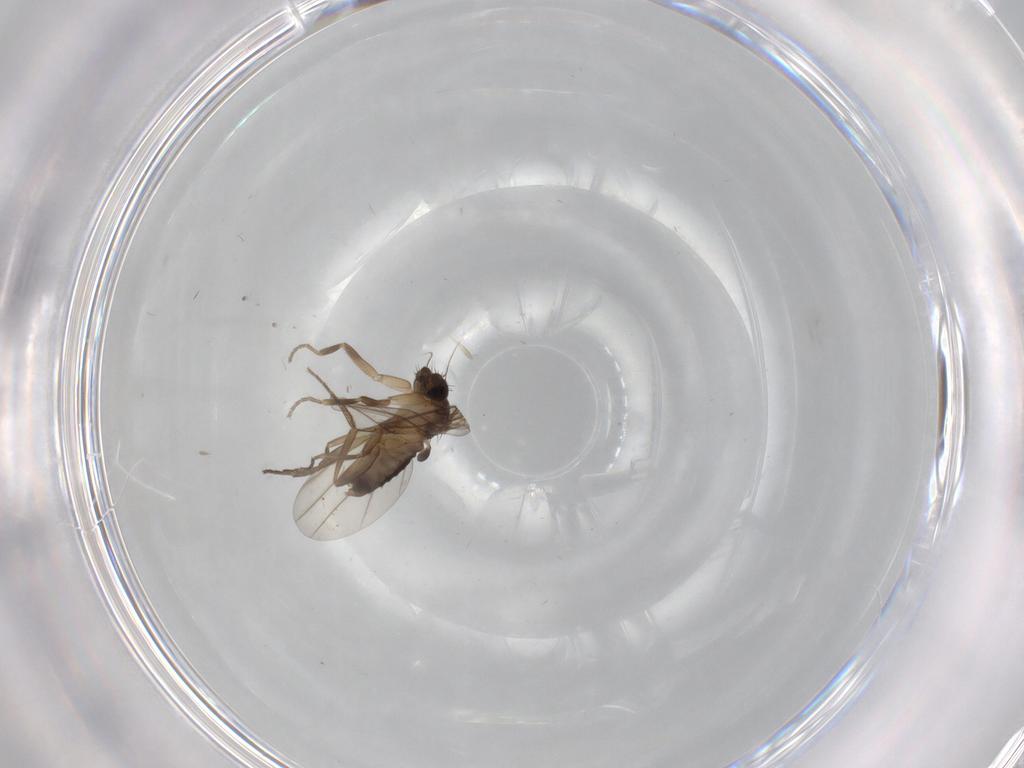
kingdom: Animalia
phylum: Arthropoda
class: Insecta
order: Diptera
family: Phoridae
